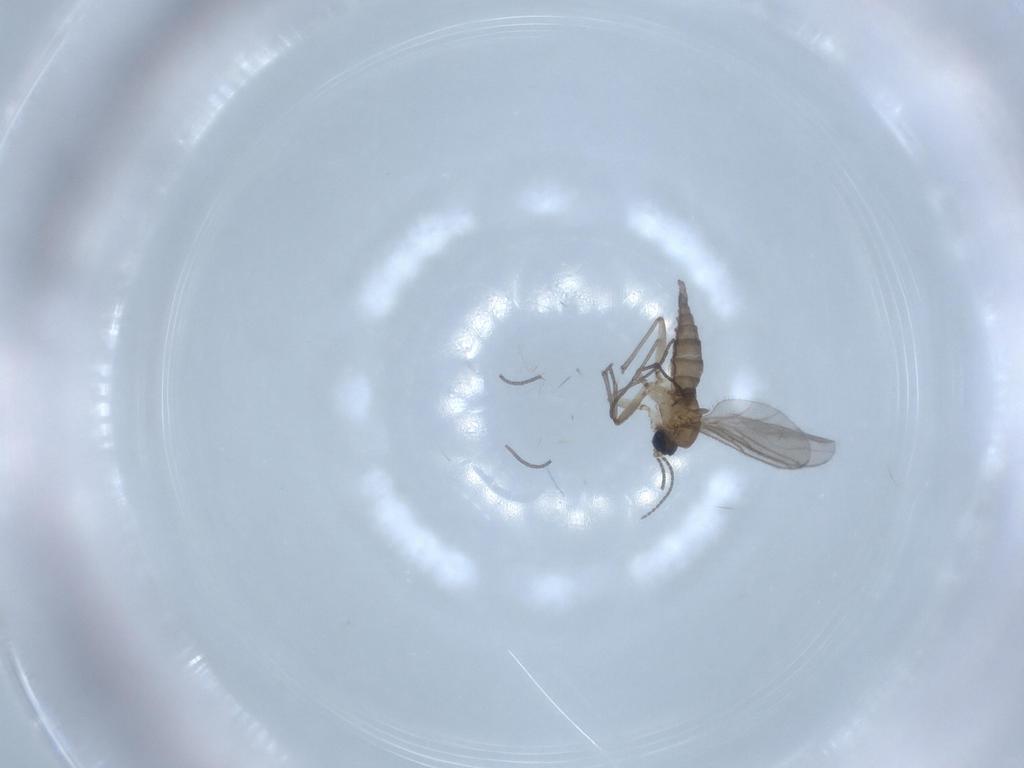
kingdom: Animalia
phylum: Arthropoda
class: Insecta
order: Diptera
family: Sciaridae
